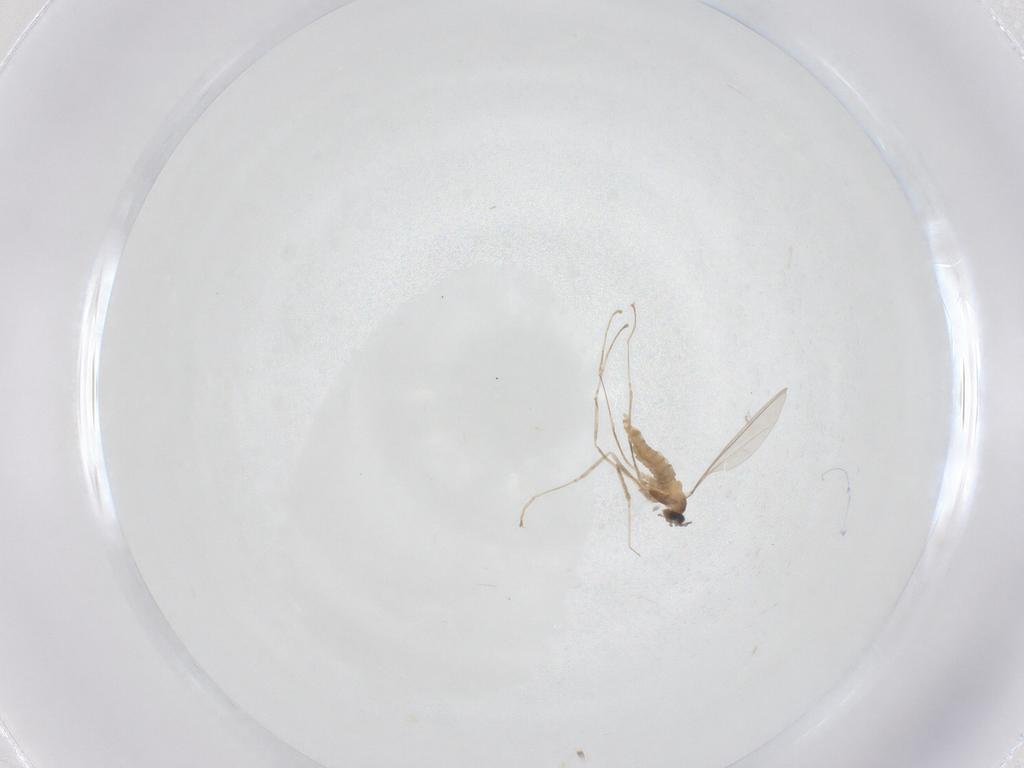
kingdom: Animalia
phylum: Arthropoda
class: Insecta
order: Diptera
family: Cecidomyiidae
